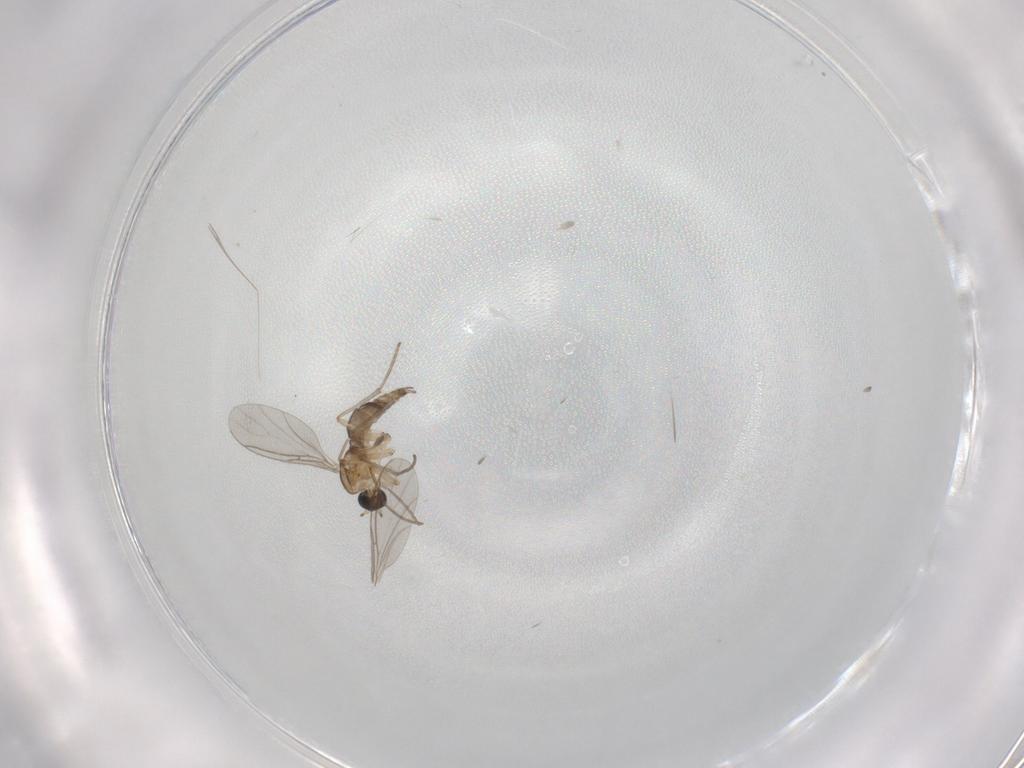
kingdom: Animalia
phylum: Arthropoda
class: Insecta
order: Diptera
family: Sciaridae
